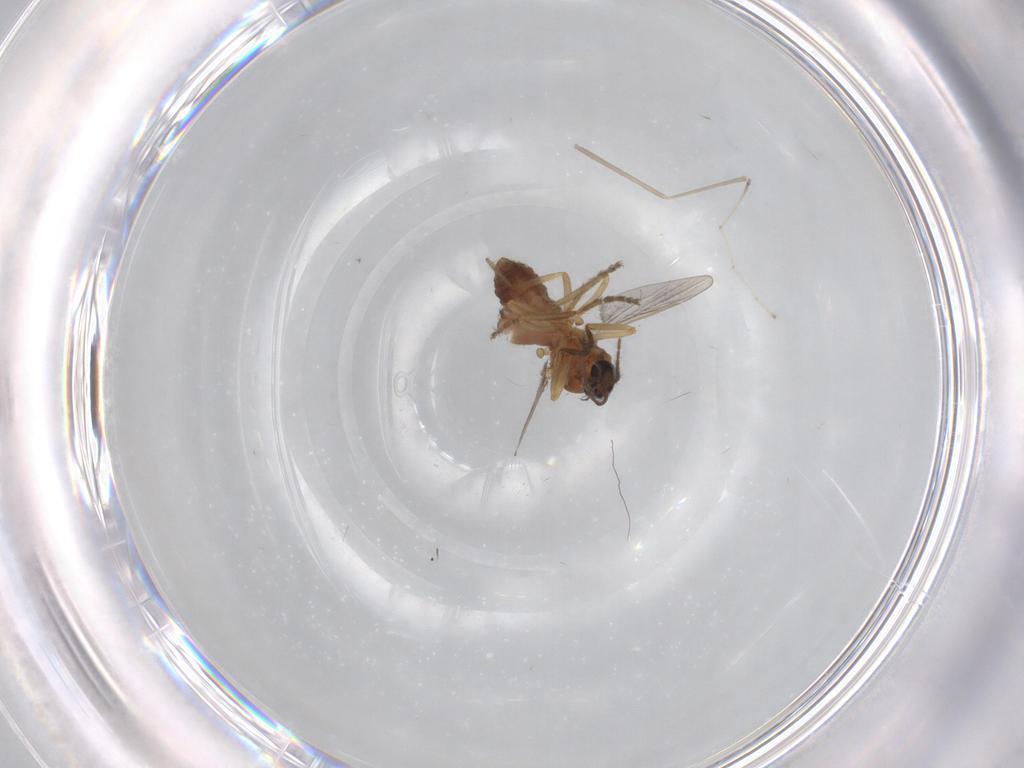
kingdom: Animalia
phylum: Arthropoda
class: Insecta
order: Diptera
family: Ceratopogonidae
